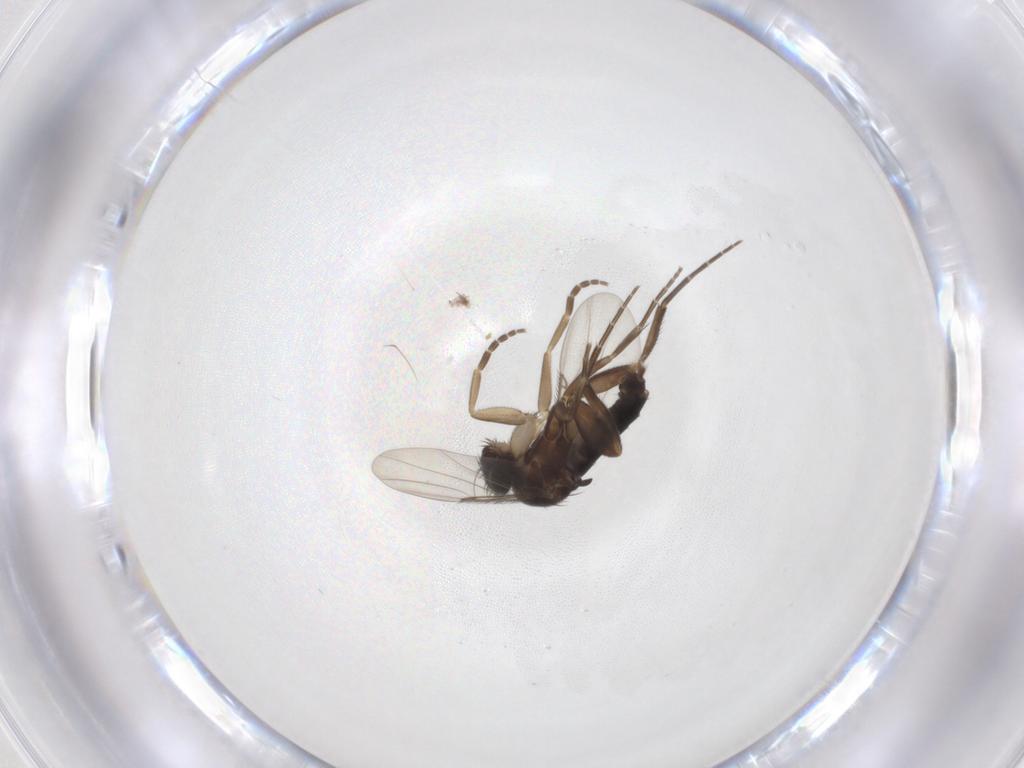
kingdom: Animalia
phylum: Arthropoda
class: Insecta
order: Diptera
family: Phoridae
